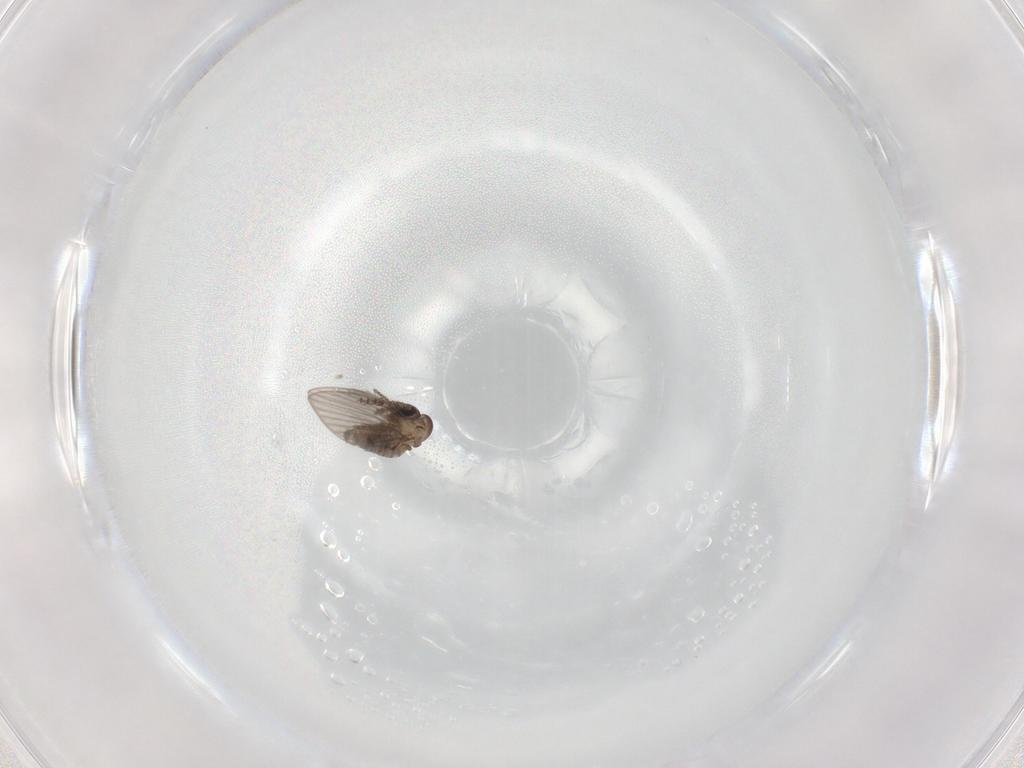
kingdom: Animalia
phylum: Arthropoda
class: Insecta
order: Diptera
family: Psychodidae
